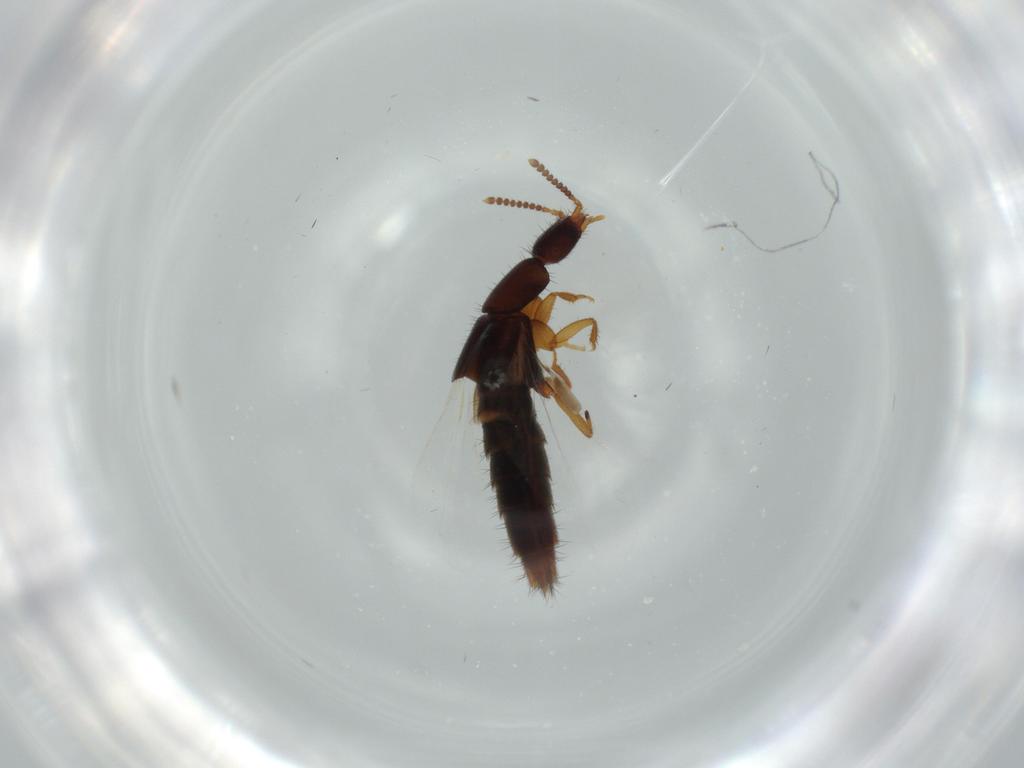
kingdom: Animalia
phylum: Arthropoda
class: Insecta
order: Coleoptera
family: Staphylinidae
